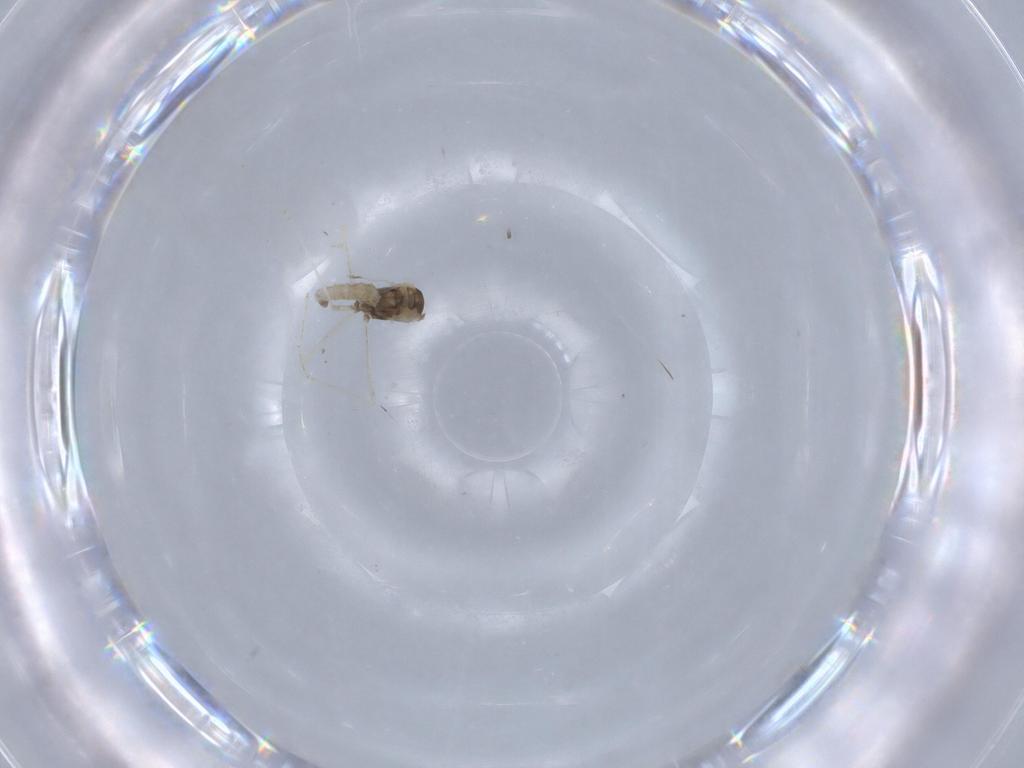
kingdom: Animalia
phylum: Arthropoda
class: Insecta
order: Diptera
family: Cecidomyiidae
